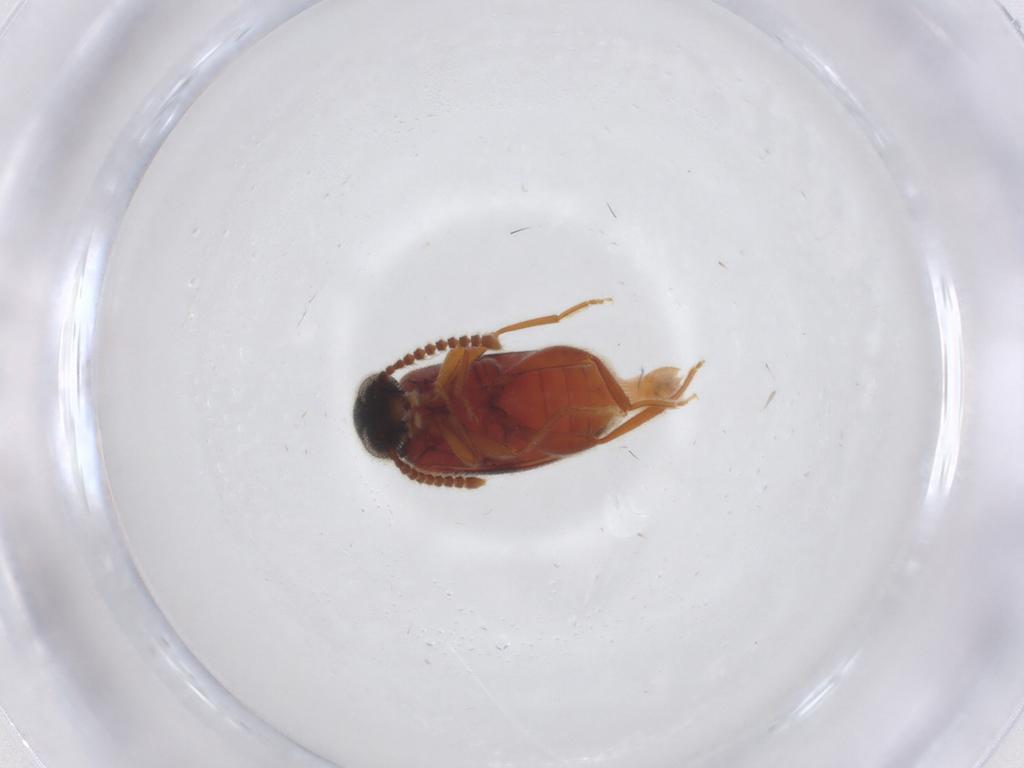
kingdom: Animalia
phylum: Arthropoda
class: Insecta
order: Coleoptera
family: Aderidae
